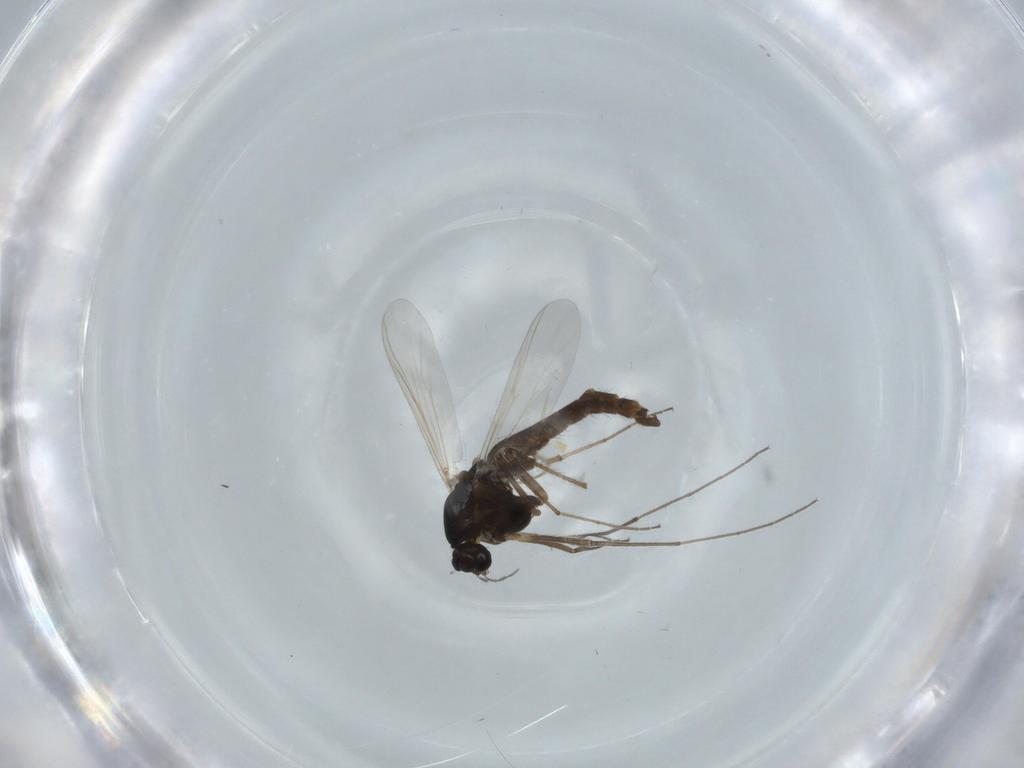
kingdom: Animalia
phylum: Arthropoda
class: Insecta
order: Diptera
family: Chironomidae
